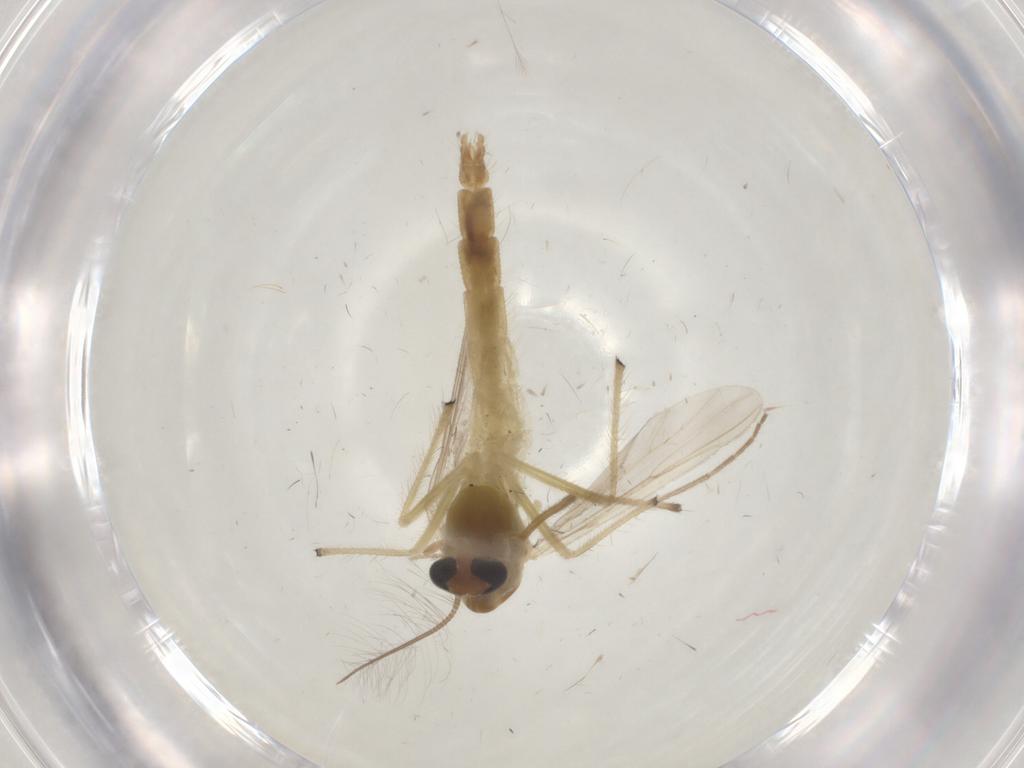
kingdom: Animalia
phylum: Arthropoda
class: Insecta
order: Diptera
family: Chironomidae
